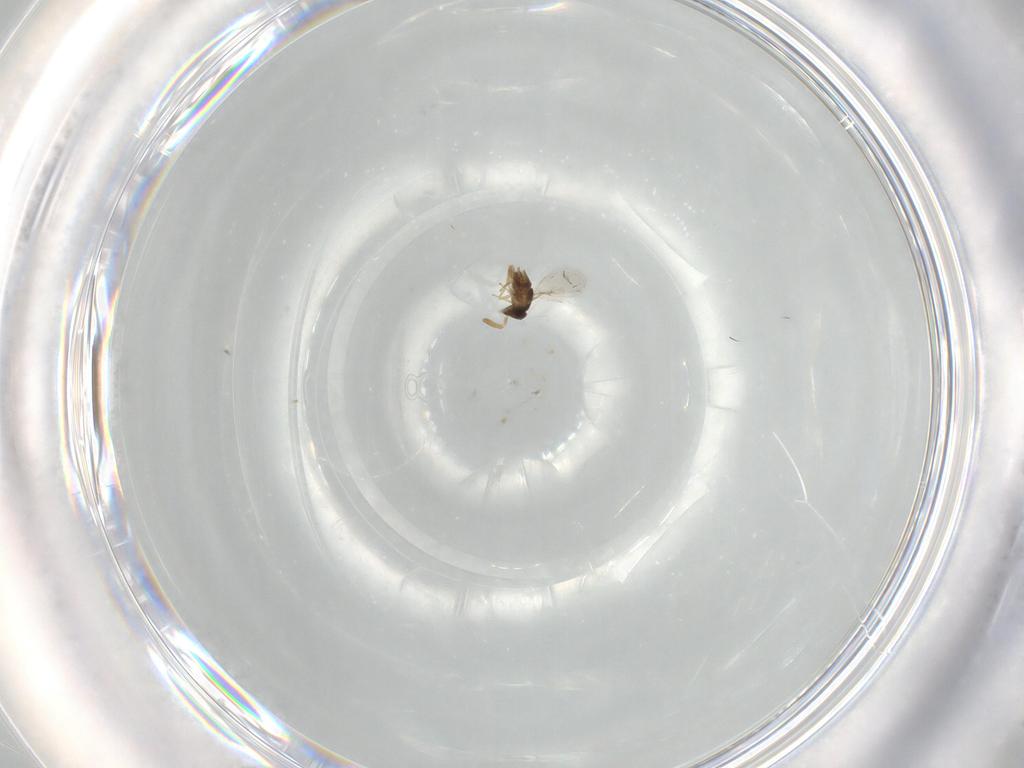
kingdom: Animalia
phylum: Arthropoda
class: Insecta
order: Hymenoptera
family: Encyrtidae
